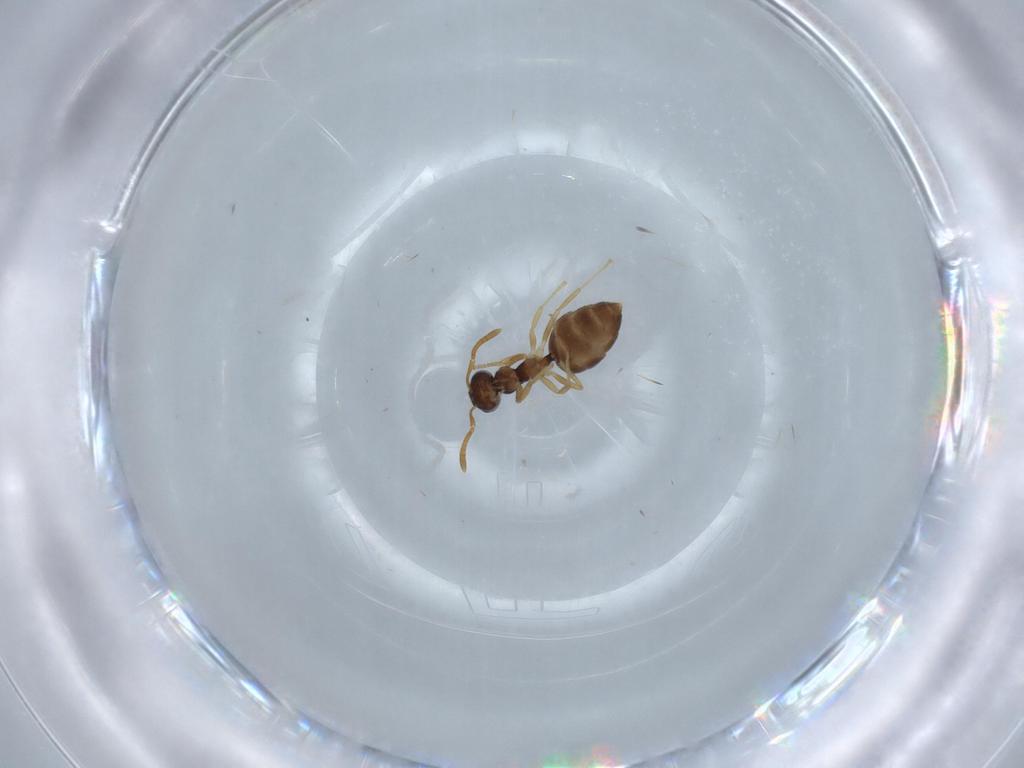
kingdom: Animalia
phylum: Arthropoda
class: Insecta
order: Hymenoptera
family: Formicidae
